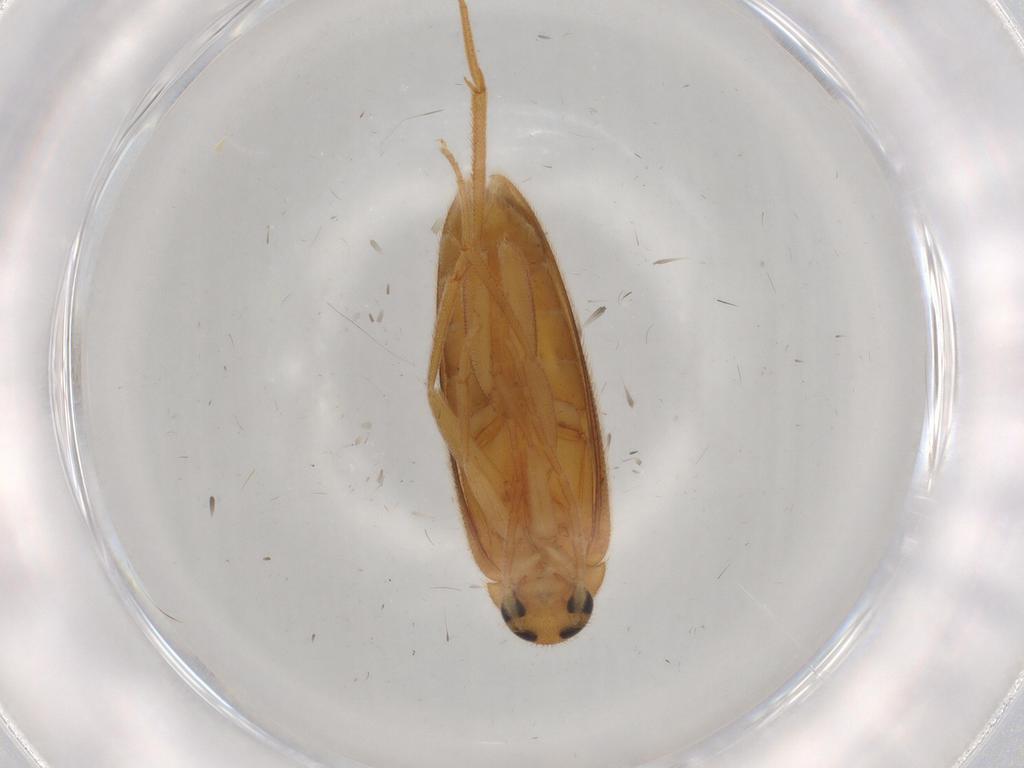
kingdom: Animalia
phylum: Arthropoda
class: Insecta
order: Coleoptera
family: Scraptiidae
